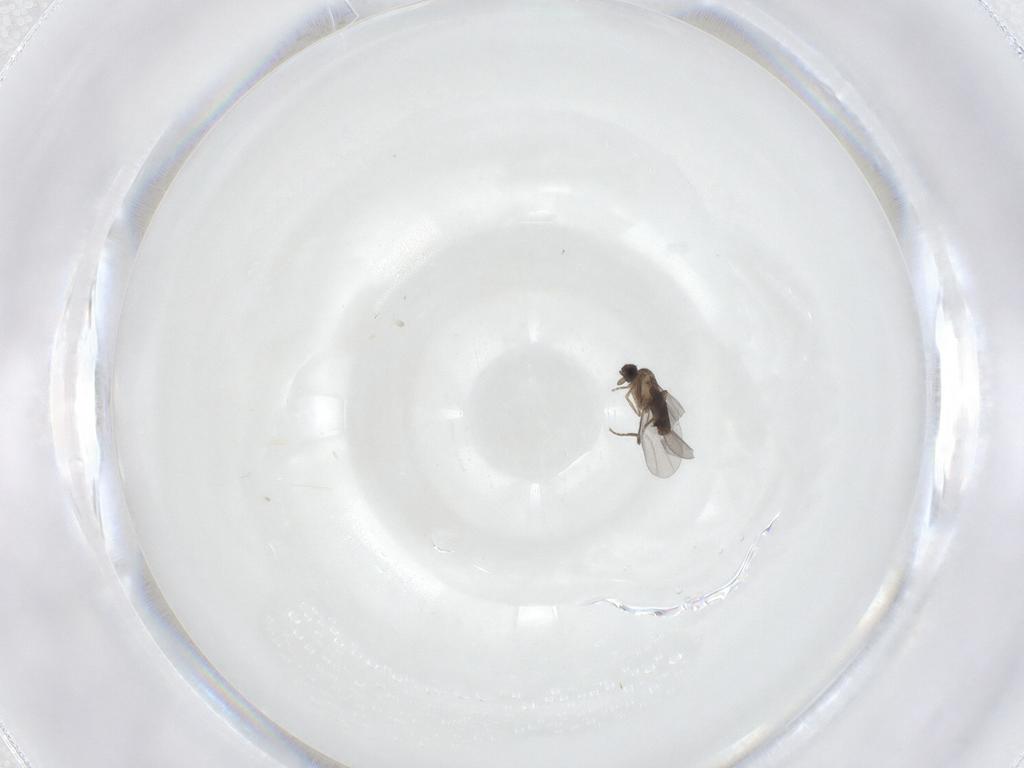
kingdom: Animalia
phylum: Arthropoda
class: Insecta
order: Diptera
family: Phoridae
